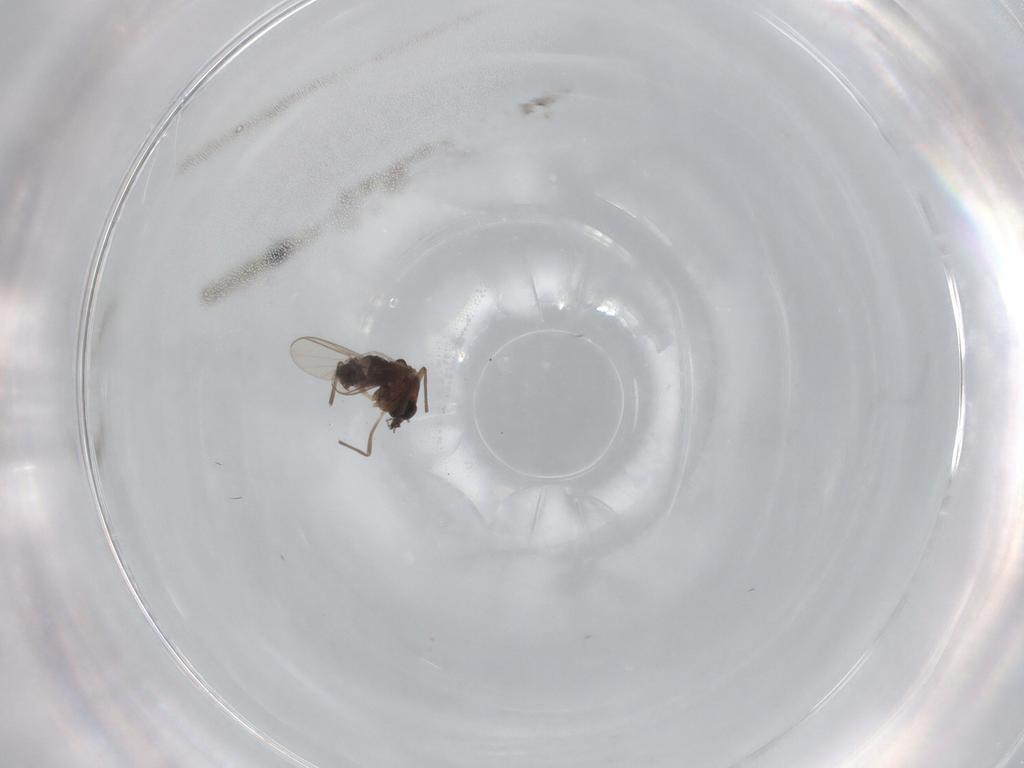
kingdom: Animalia
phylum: Arthropoda
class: Insecta
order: Diptera
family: Chironomidae
